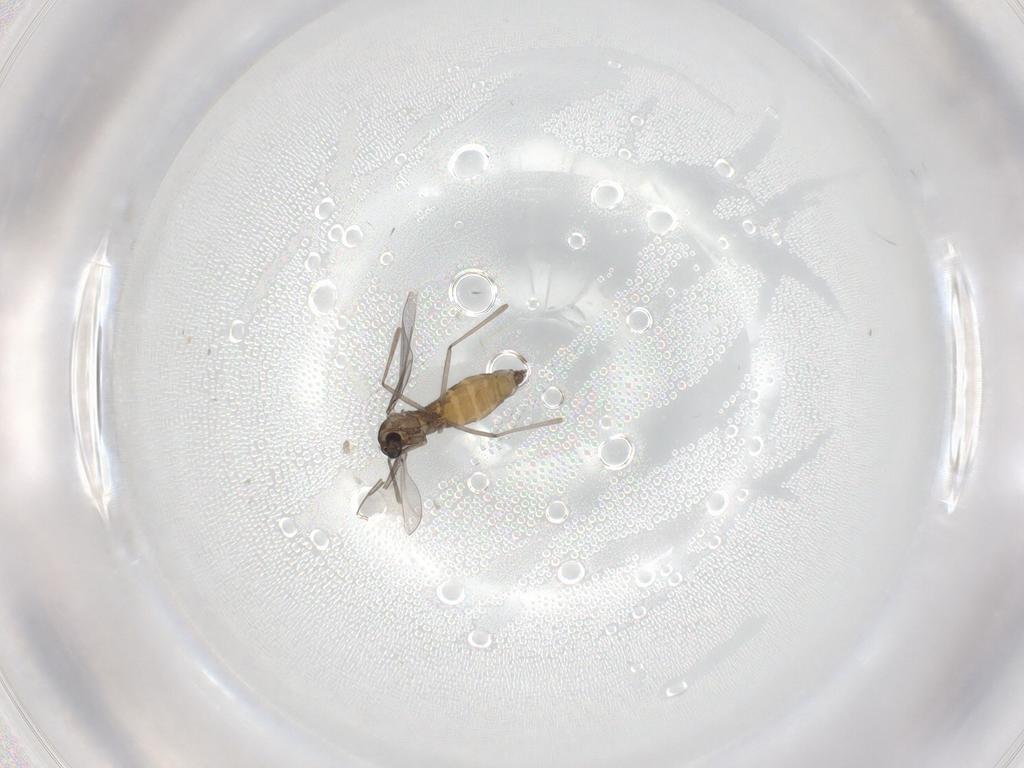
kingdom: Animalia
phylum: Arthropoda
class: Insecta
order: Diptera
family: Cecidomyiidae
